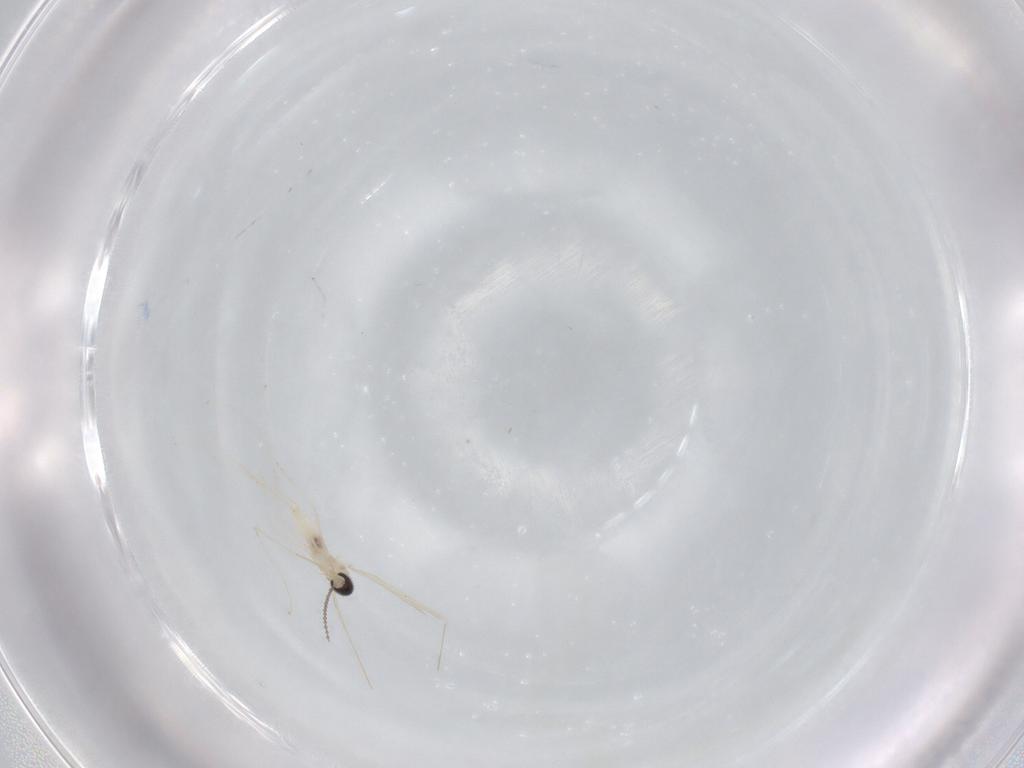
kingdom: Animalia
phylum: Arthropoda
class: Insecta
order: Diptera
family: Cecidomyiidae
